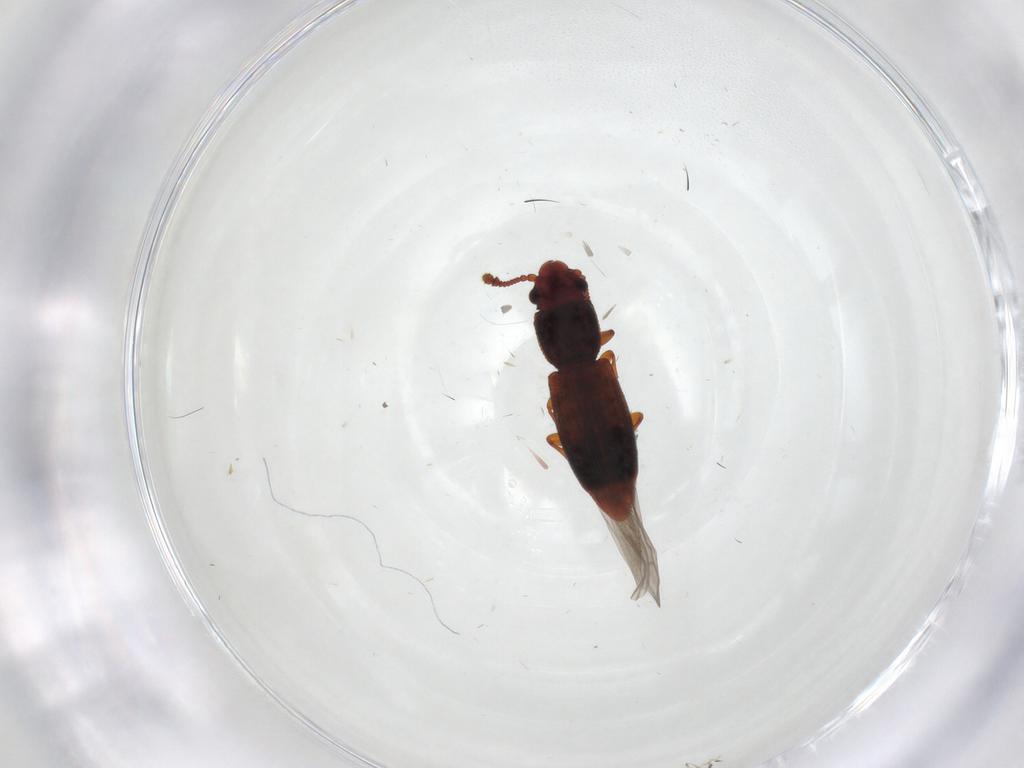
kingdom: Animalia
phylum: Arthropoda
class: Insecta
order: Coleoptera
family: Monotomidae
